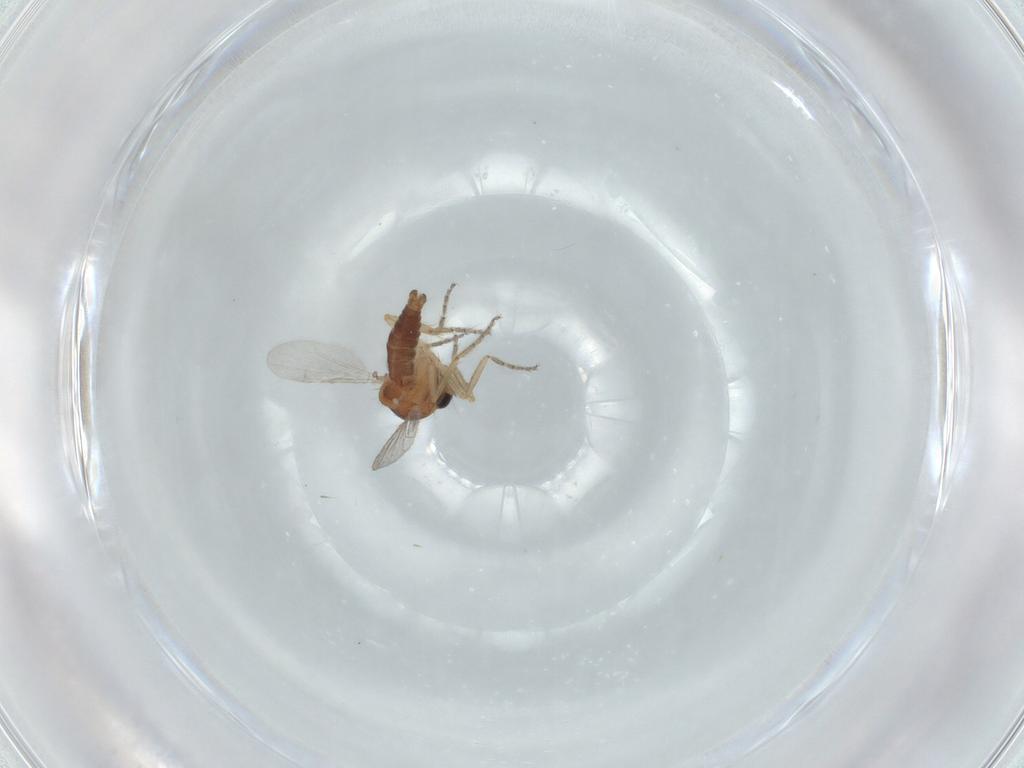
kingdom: Animalia
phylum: Arthropoda
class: Insecta
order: Diptera
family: Ceratopogonidae
